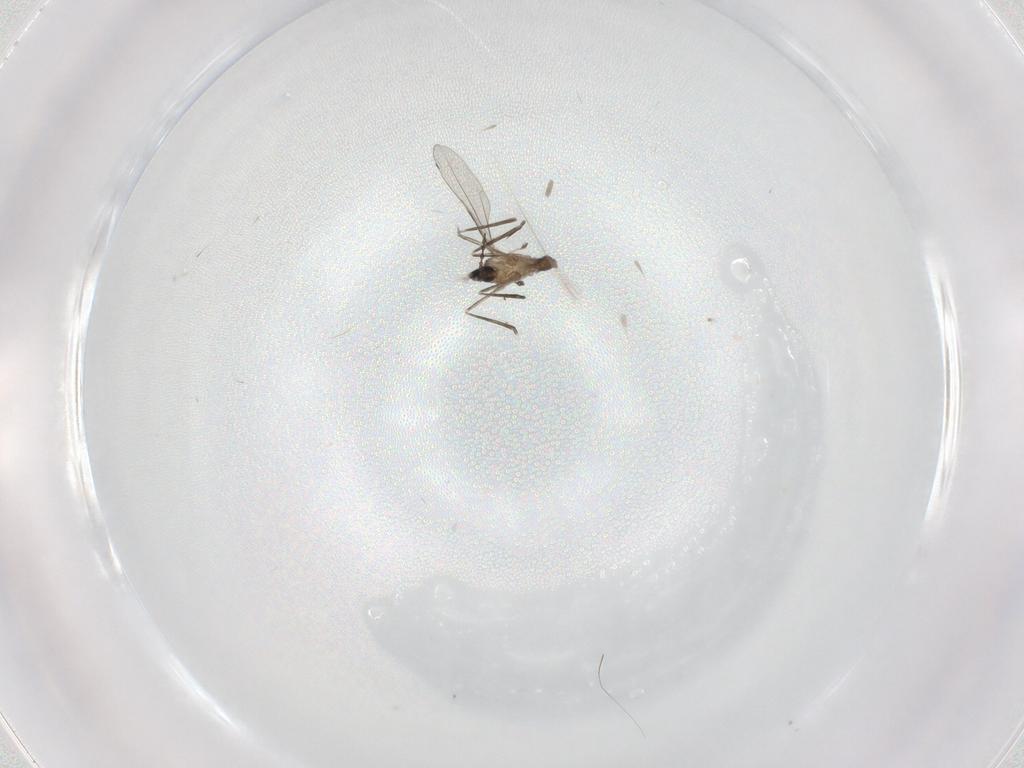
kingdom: Animalia
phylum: Arthropoda
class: Insecta
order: Diptera
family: Cecidomyiidae
